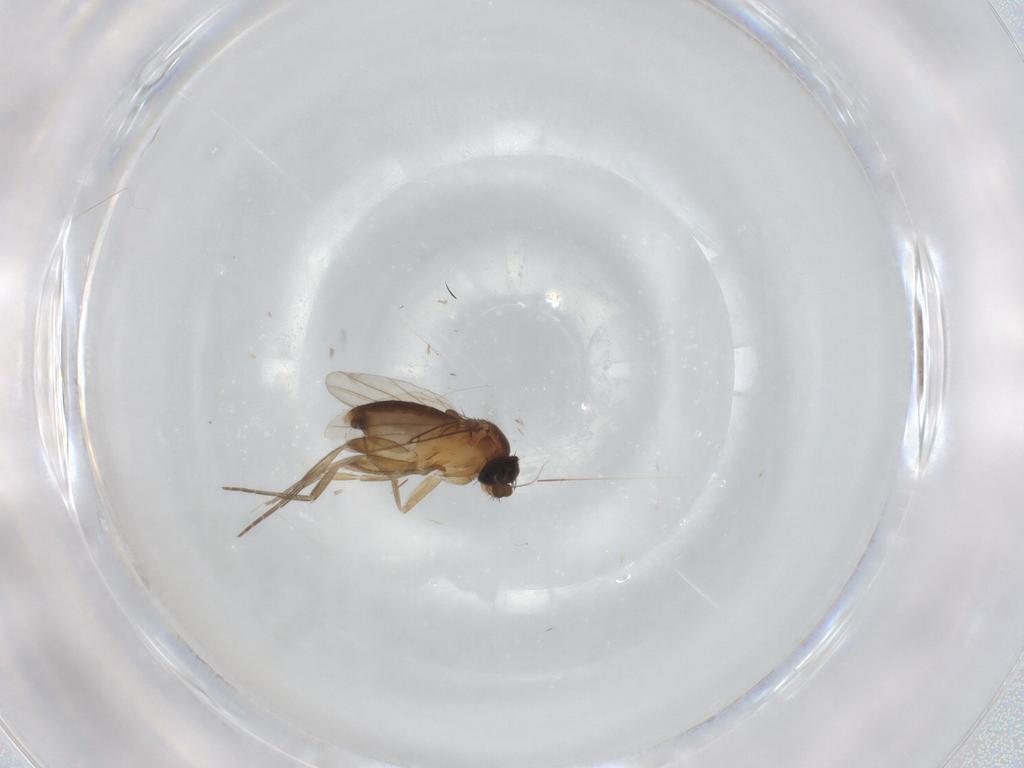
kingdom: Animalia
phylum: Arthropoda
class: Insecta
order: Diptera
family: Phoridae
